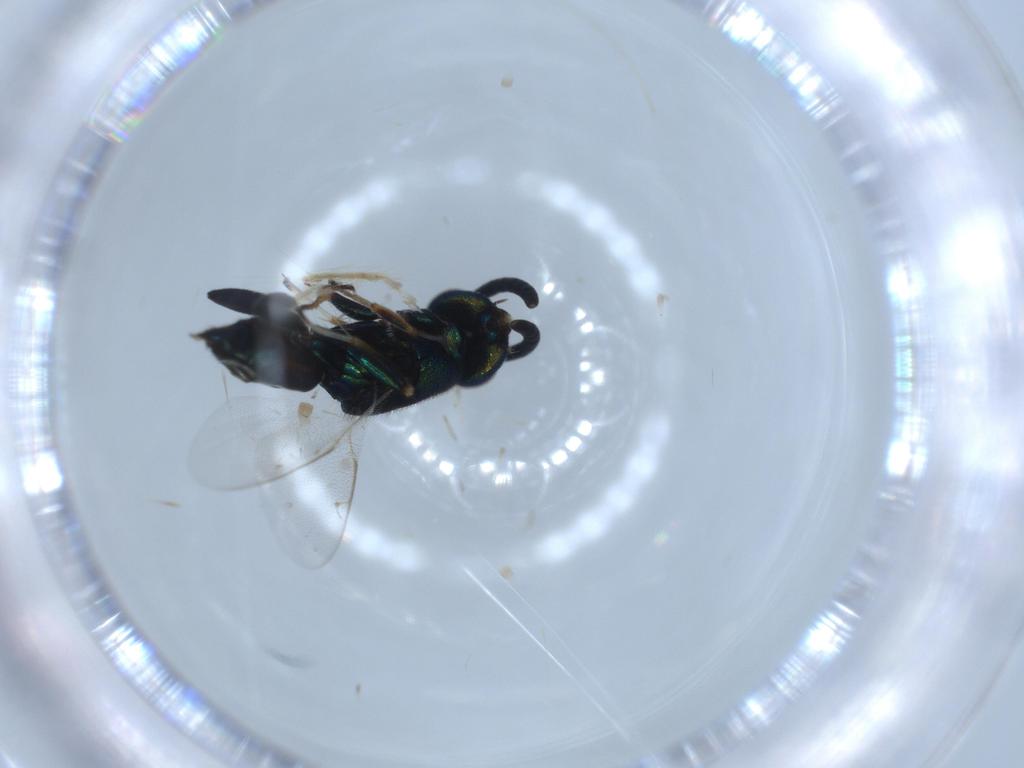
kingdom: Animalia
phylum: Arthropoda
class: Insecta
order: Hymenoptera
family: Eupelmidae
